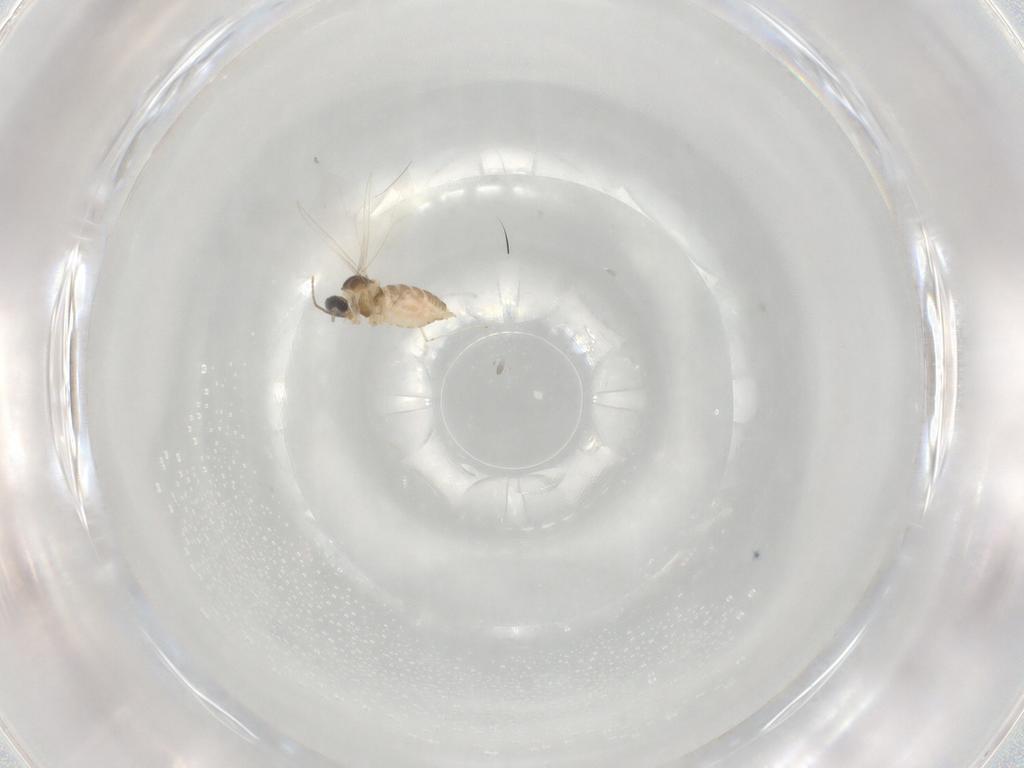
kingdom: Animalia
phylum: Arthropoda
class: Insecta
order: Diptera
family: Cecidomyiidae
